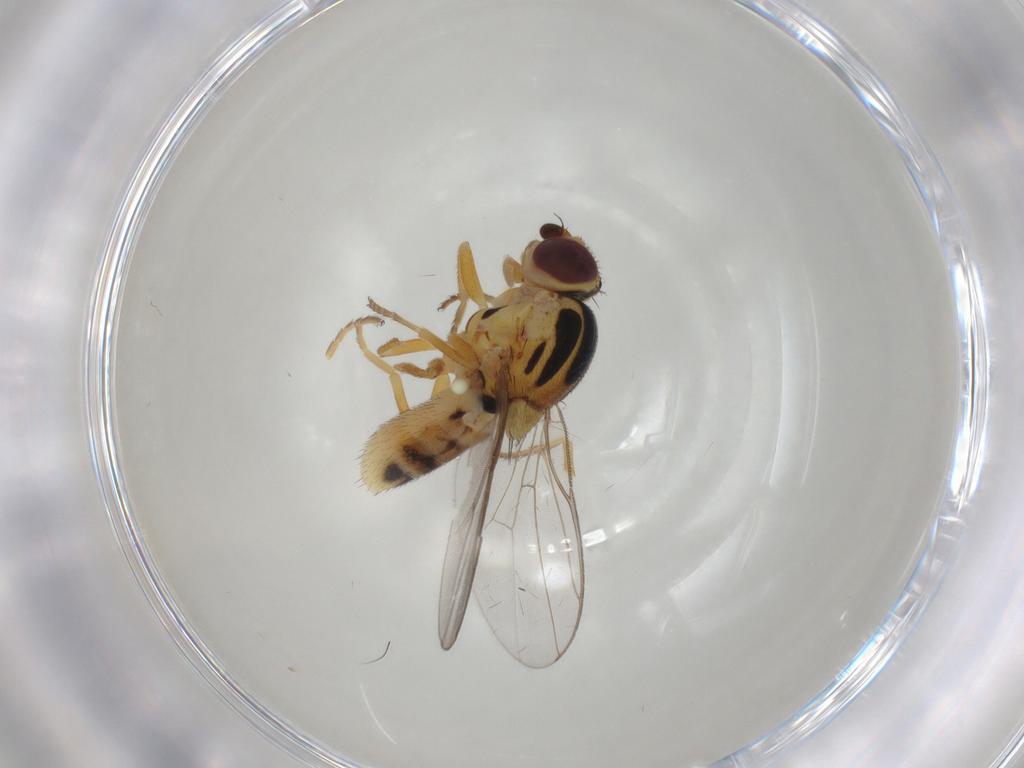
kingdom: Animalia
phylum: Arthropoda
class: Insecta
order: Diptera
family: Chloropidae
